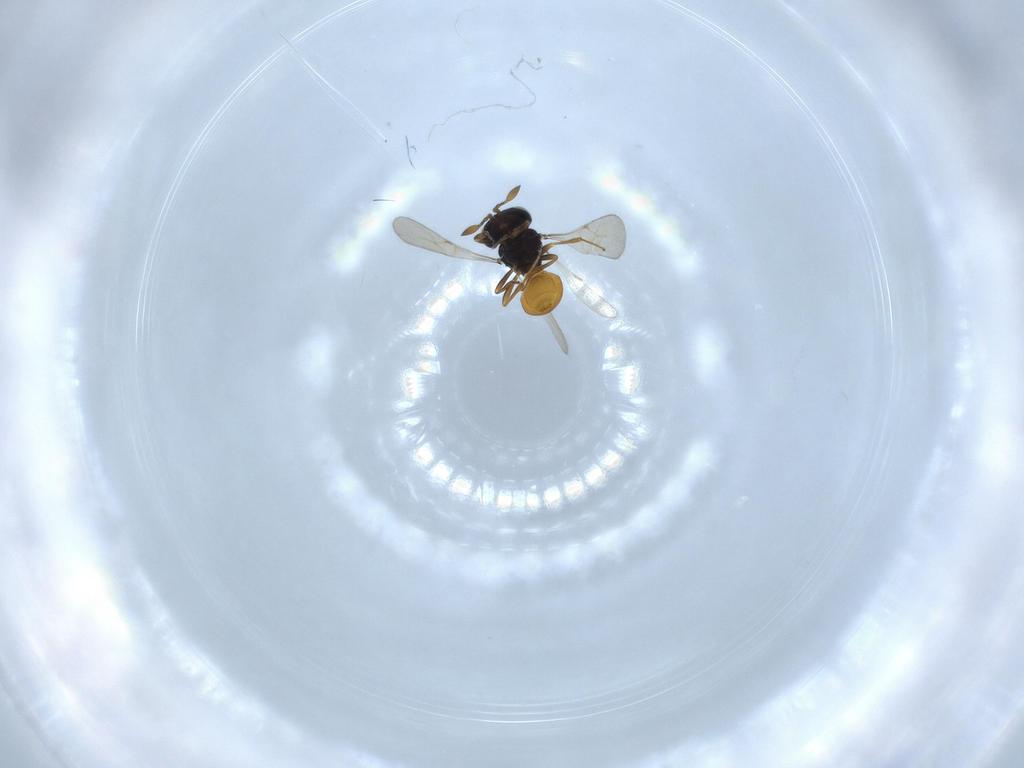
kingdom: Animalia
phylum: Arthropoda
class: Insecta
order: Hymenoptera
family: Scelionidae
